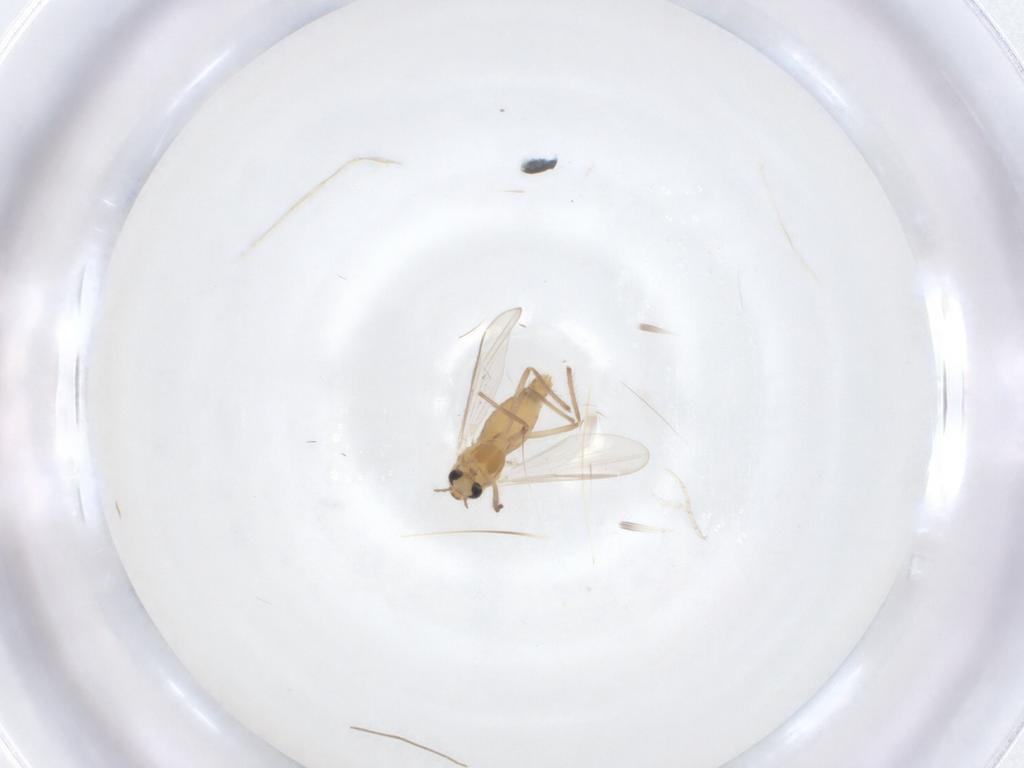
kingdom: Animalia
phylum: Arthropoda
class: Insecta
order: Diptera
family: Chironomidae
